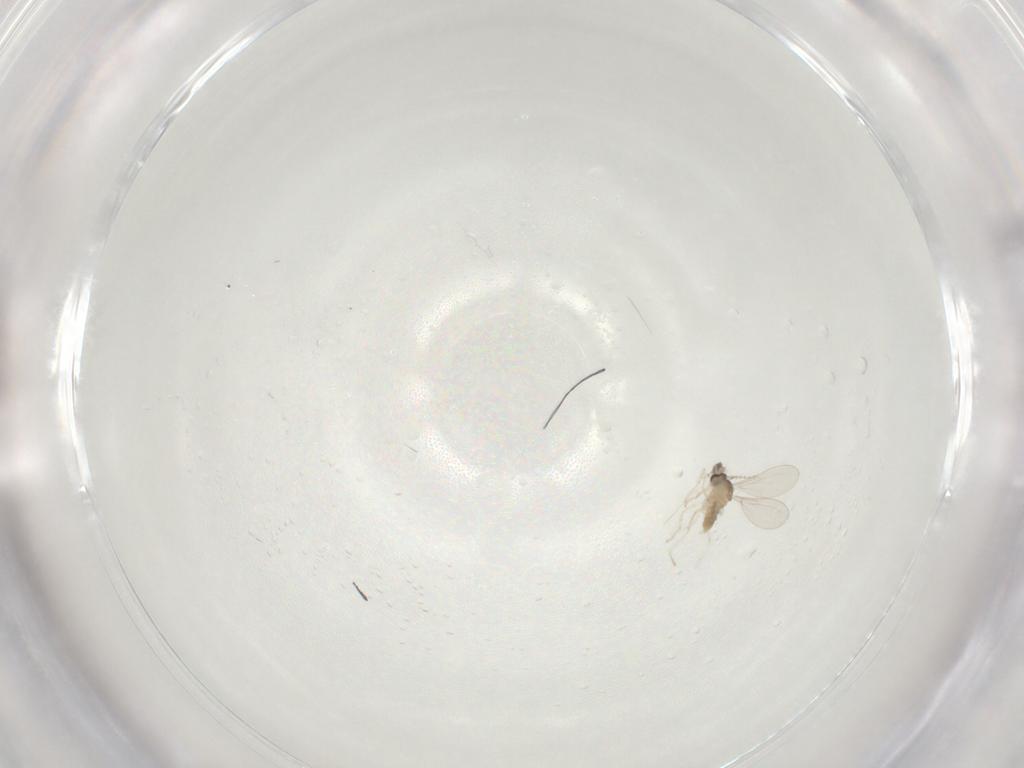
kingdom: Animalia
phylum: Arthropoda
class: Insecta
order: Diptera
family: Cecidomyiidae
